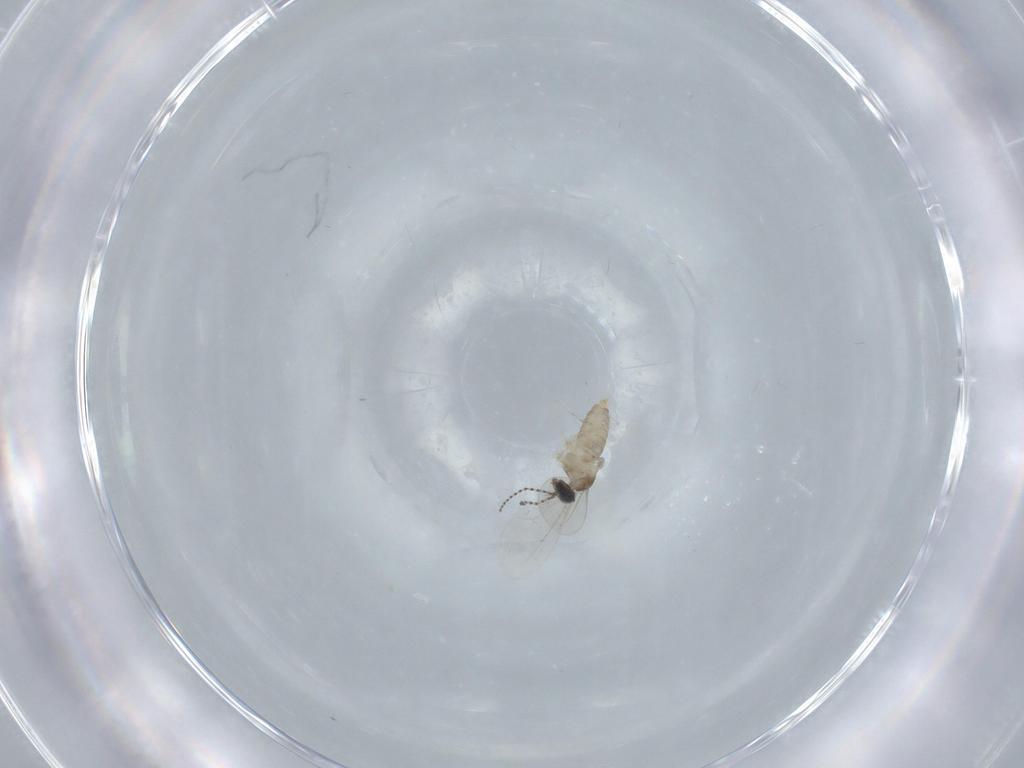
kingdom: Animalia
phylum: Arthropoda
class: Insecta
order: Diptera
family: Cecidomyiidae
